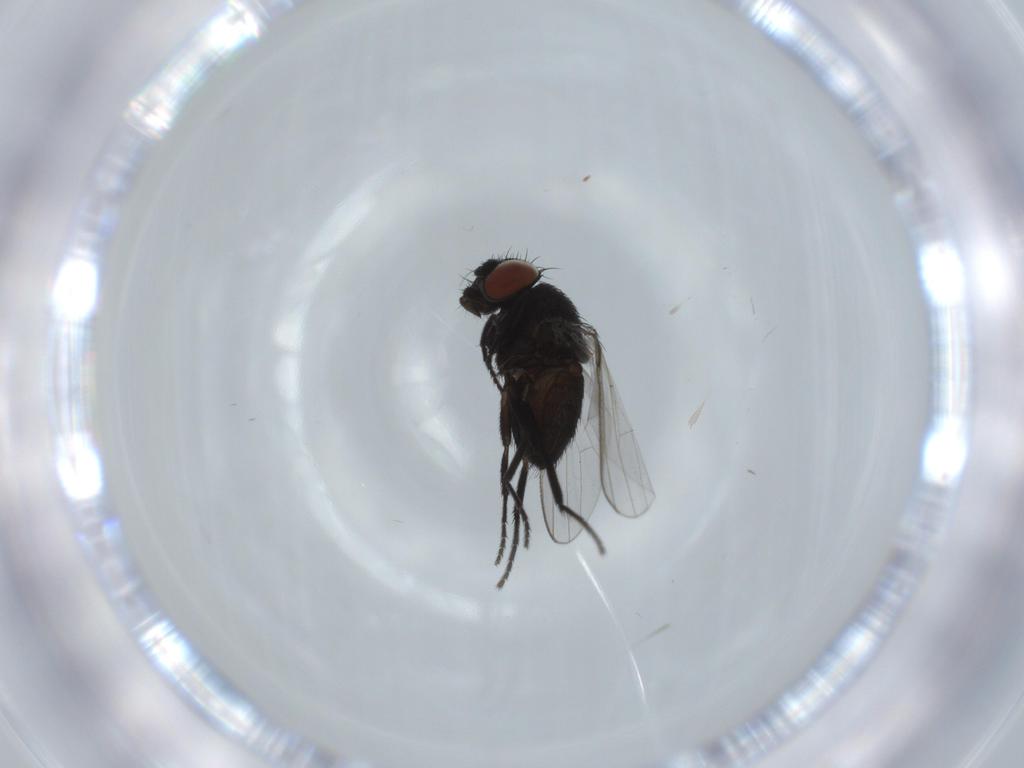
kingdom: Animalia
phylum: Arthropoda
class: Insecta
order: Diptera
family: Milichiidae
